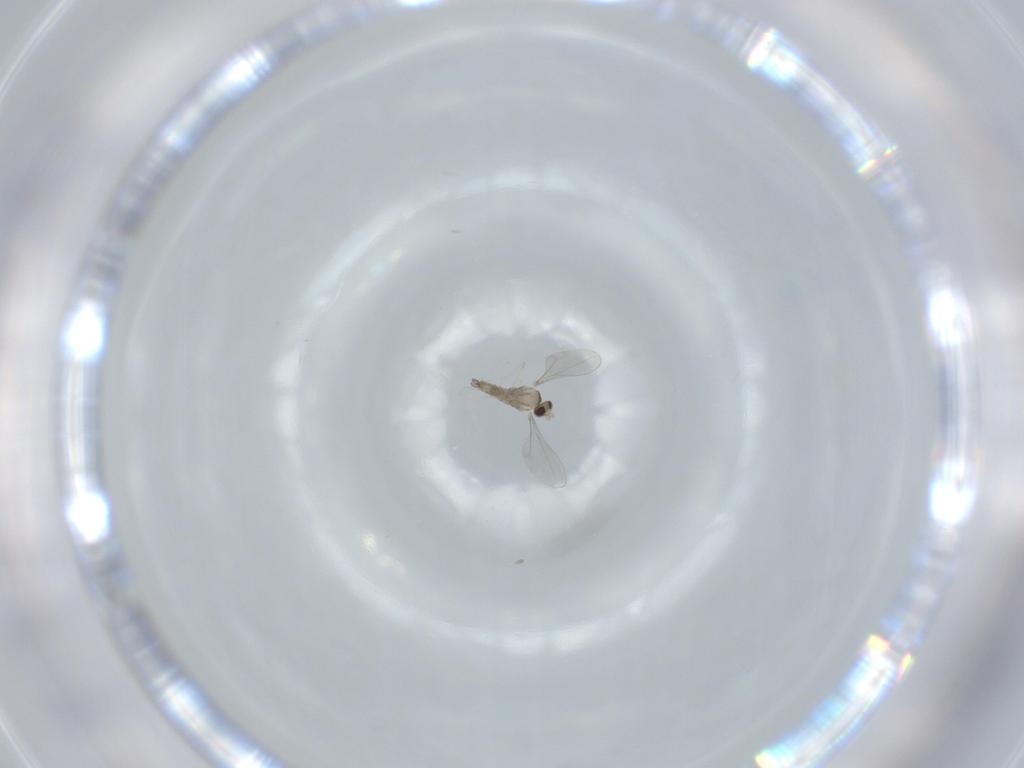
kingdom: Animalia
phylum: Arthropoda
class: Insecta
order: Diptera
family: Cecidomyiidae
